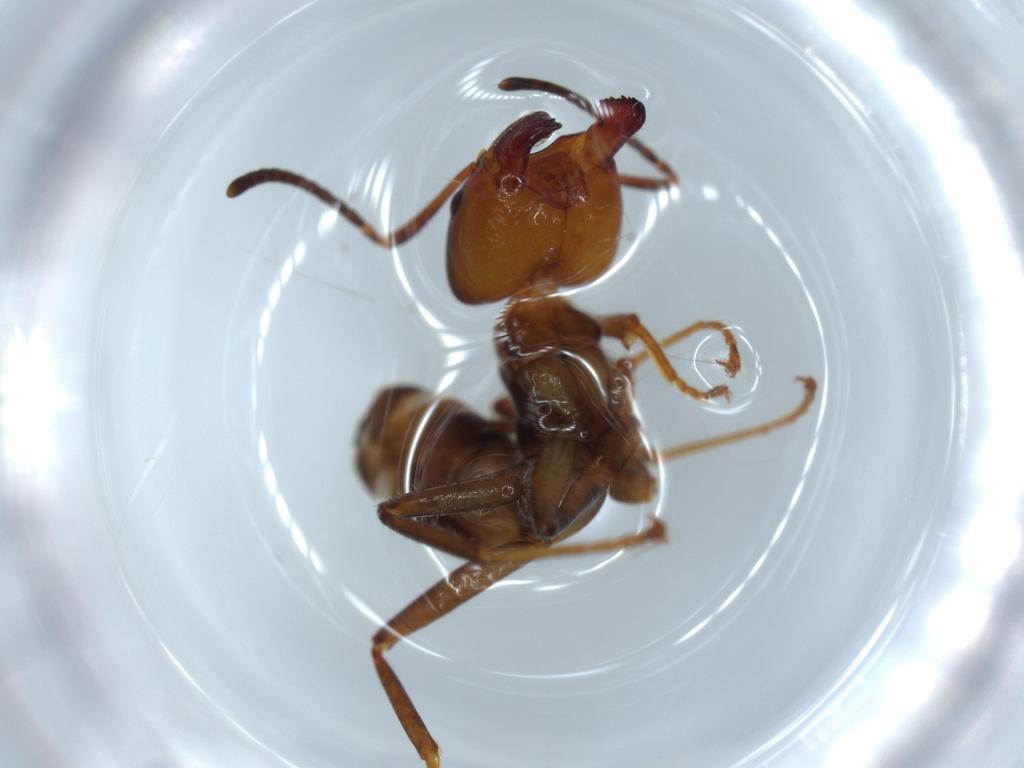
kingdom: Animalia
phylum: Arthropoda
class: Insecta
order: Hymenoptera
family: Formicidae
